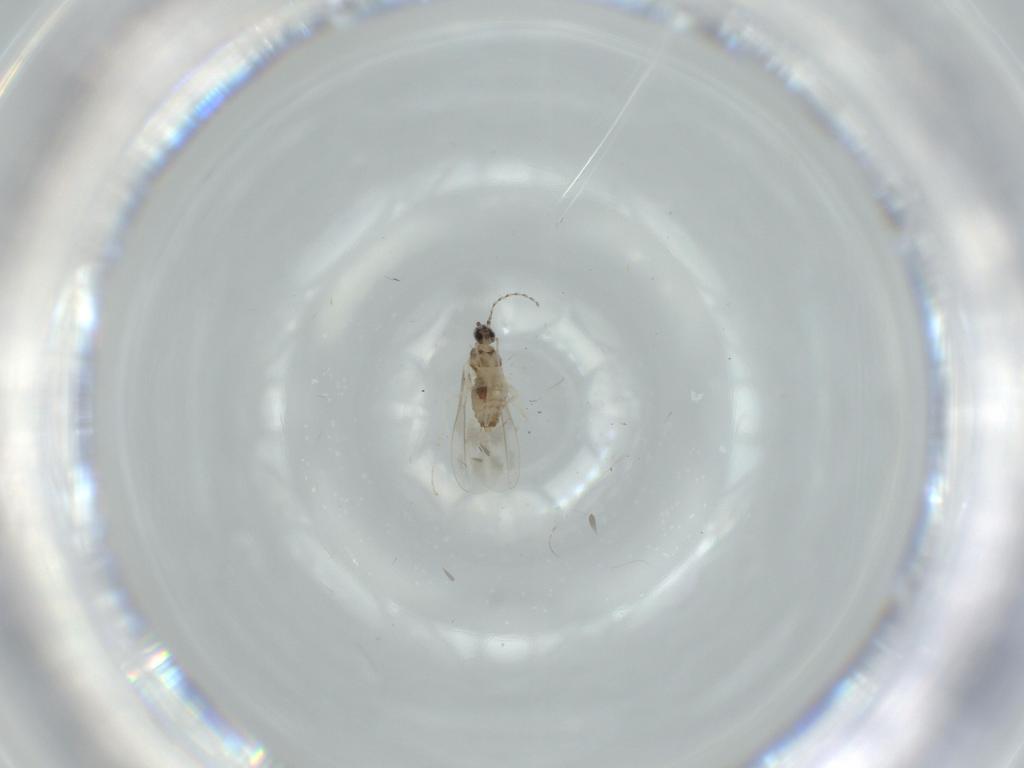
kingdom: Animalia
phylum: Arthropoda
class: Insecta
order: Diptera
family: Cecidomyiidae
